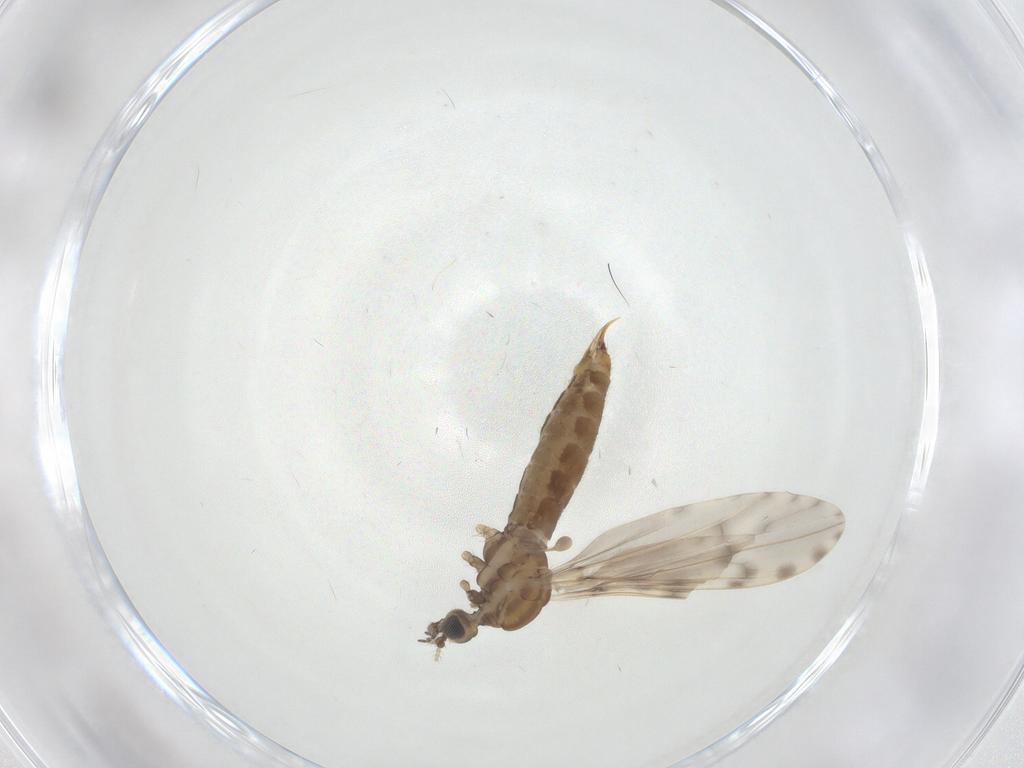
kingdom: Animalia
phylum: Arthropoda
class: Insecta
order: Diptera
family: Limoniidae
